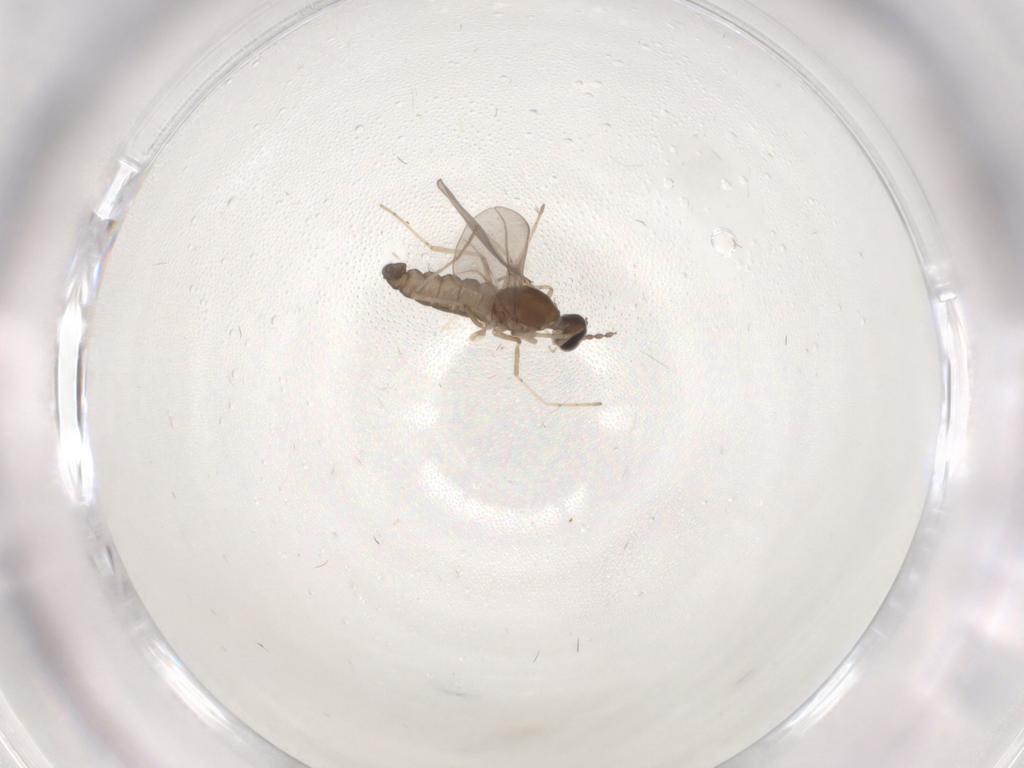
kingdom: Animalia
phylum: Arthropoda
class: Insecta
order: Diptera
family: Cecidomyiidae
